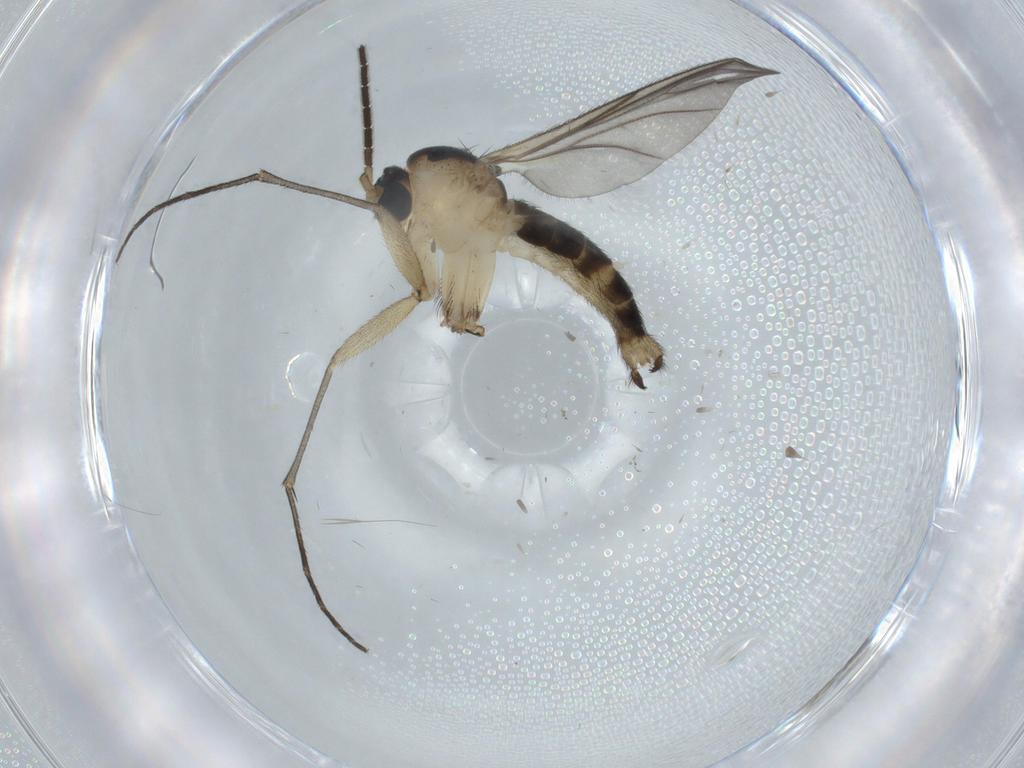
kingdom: Animalia
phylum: Arthropoda
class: Insecta
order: Diptera
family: Sciaridae
